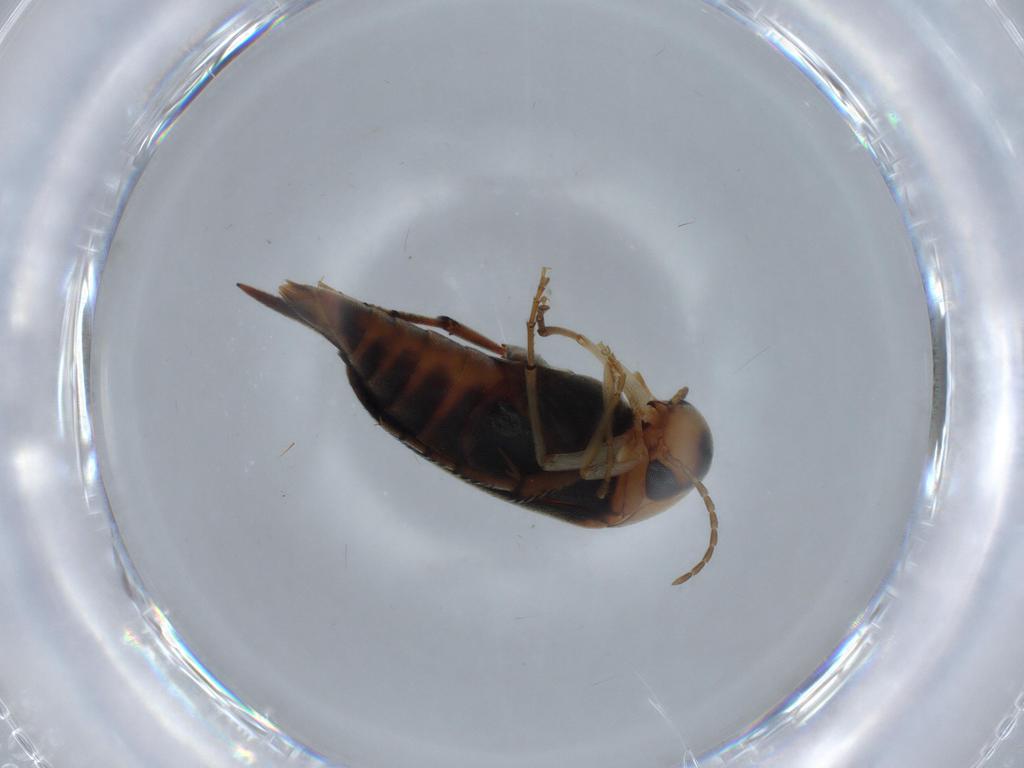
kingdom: Animalia
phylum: Arthropoda
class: Insecta
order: Coleoptera
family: Mordellidae
